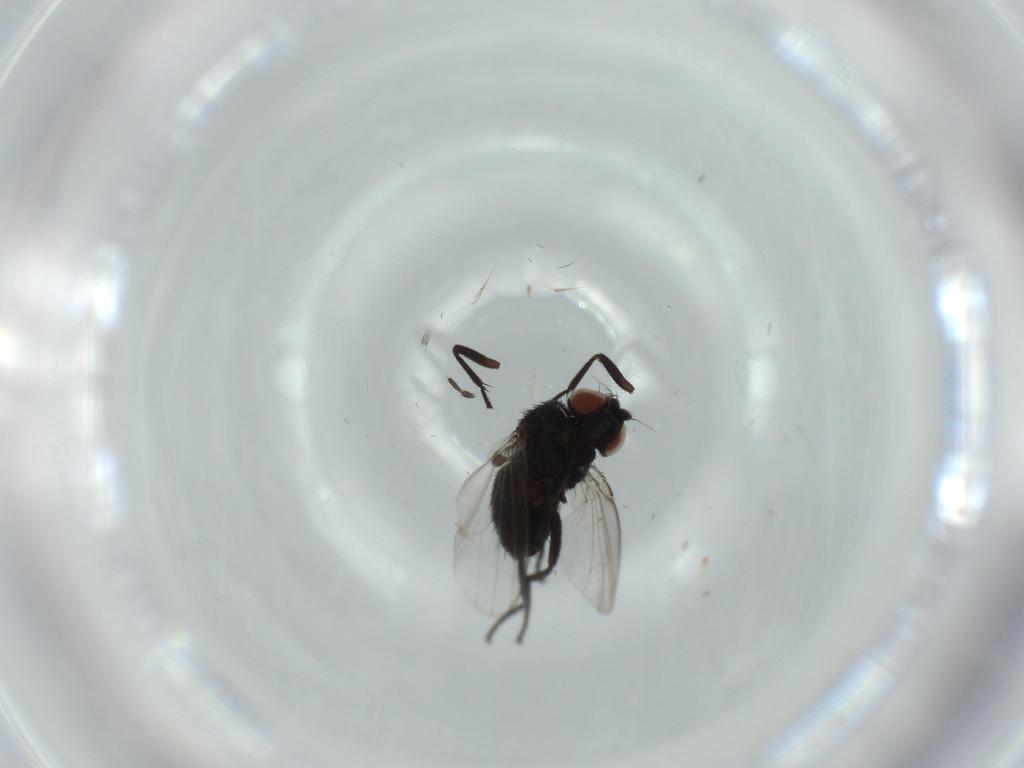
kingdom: Animalia
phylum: Arthropoda
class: Insecta
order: Diptera
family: Milichiidae
